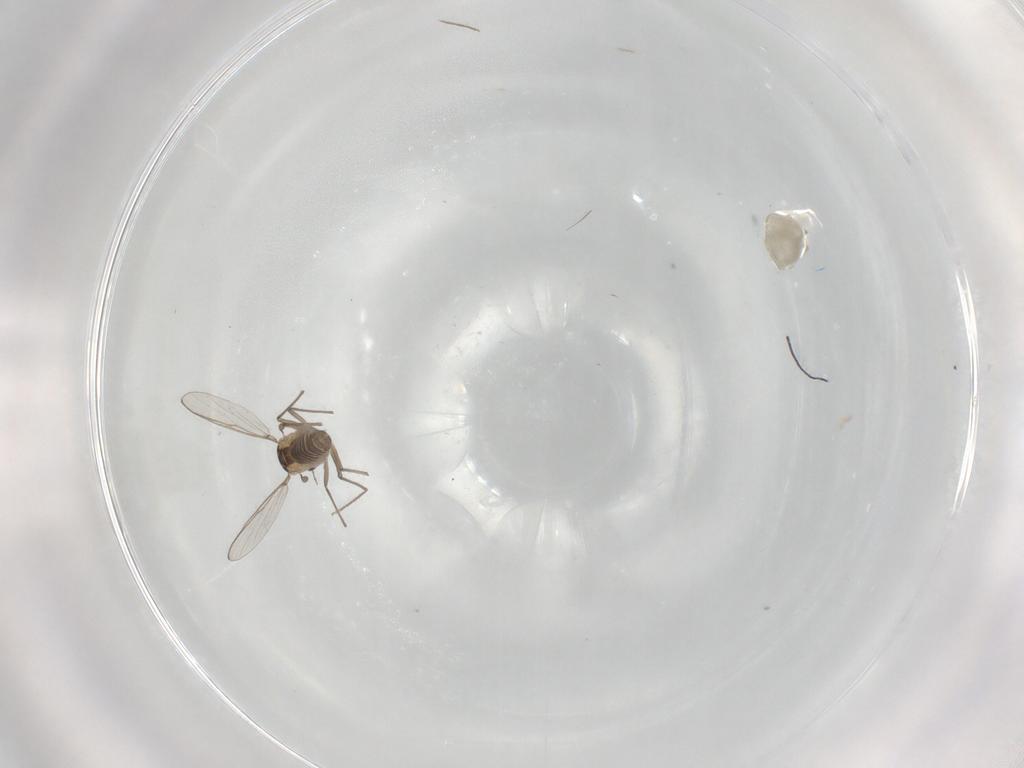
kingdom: Animalia
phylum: Arthropoda
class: Insecta
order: Diptera
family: Chironomidae
